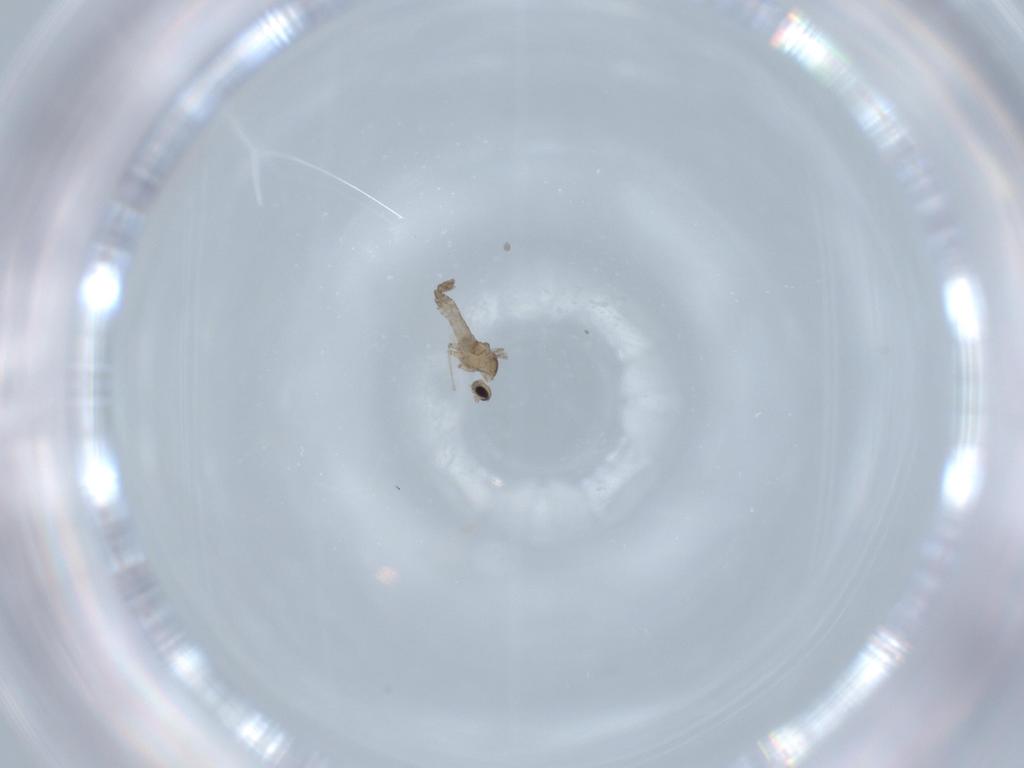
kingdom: Animalia
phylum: Arthropoda
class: Insecta
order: Diptera
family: Cecidomyiidae
